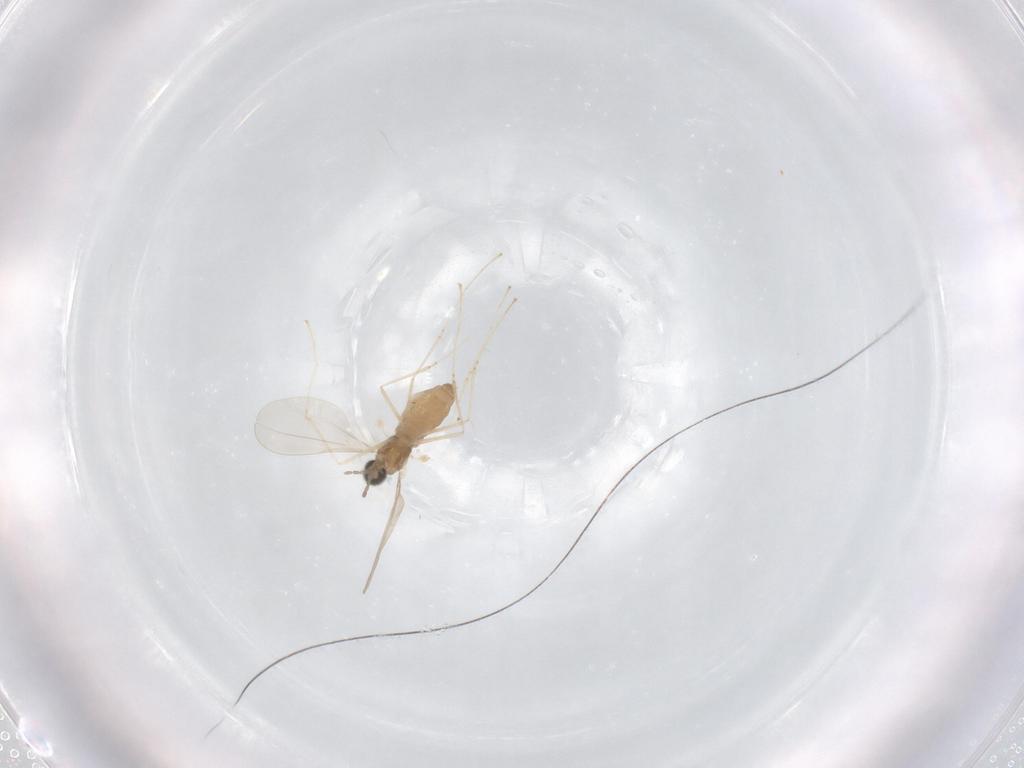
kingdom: Animalia
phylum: Arthropoda
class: Insecta
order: Diptera
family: Cecidomyiidae
